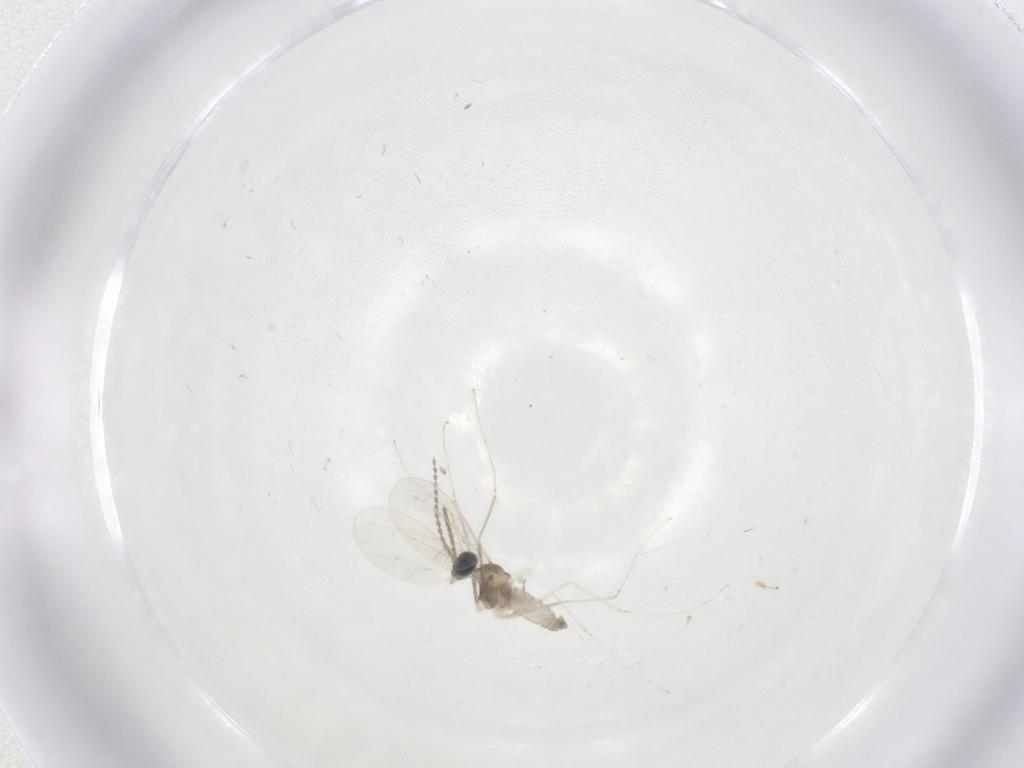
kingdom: Animalia
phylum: Arthropoda
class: Insecta
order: Diptera
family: Cecidomyiidae
